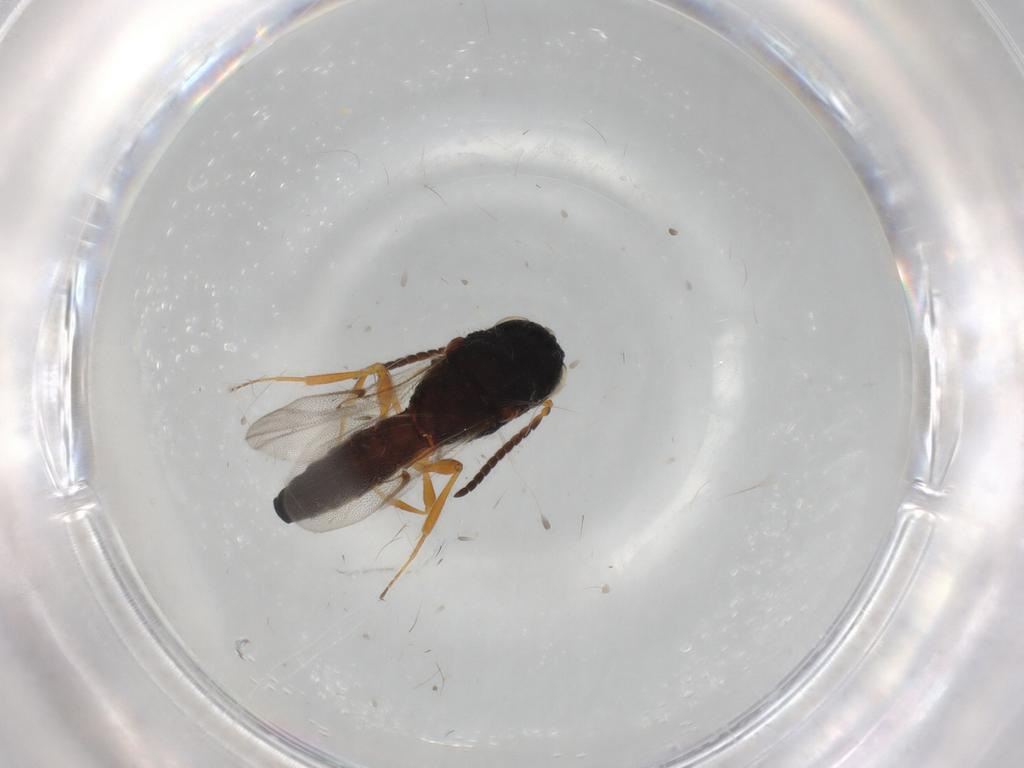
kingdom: Animalia
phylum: Arthropoda
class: Insecta
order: Hymenoptera
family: Scelionidae
